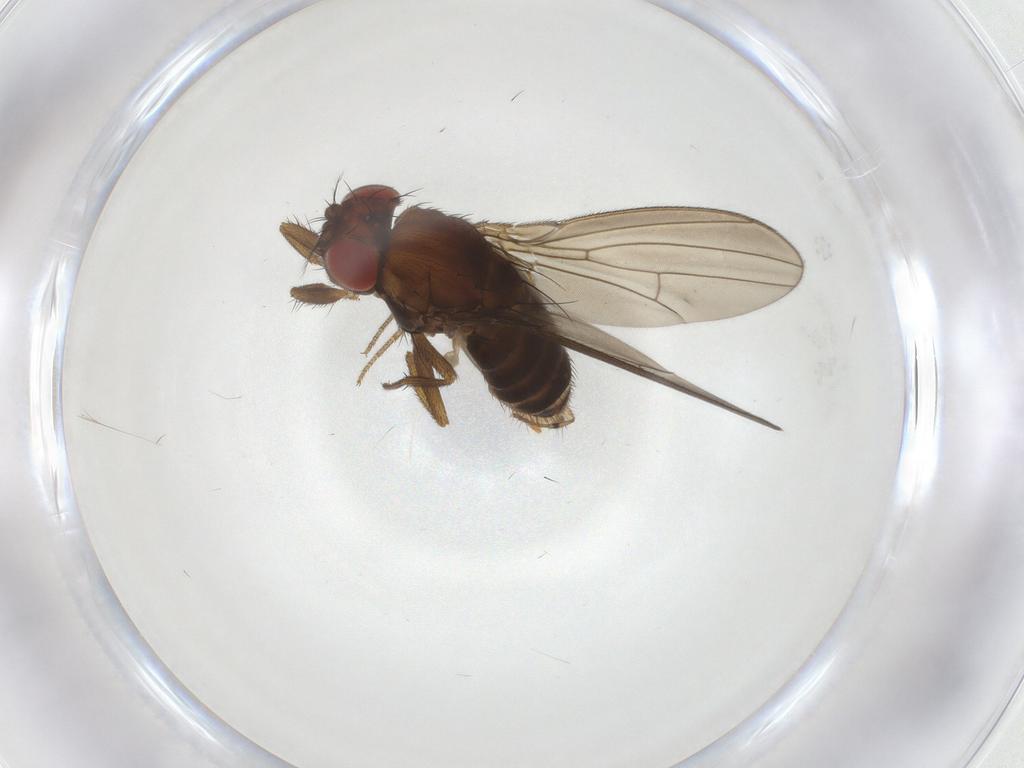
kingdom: Animalia
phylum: Arthropoda
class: Insecta
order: Diptera
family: Drosophilidae
